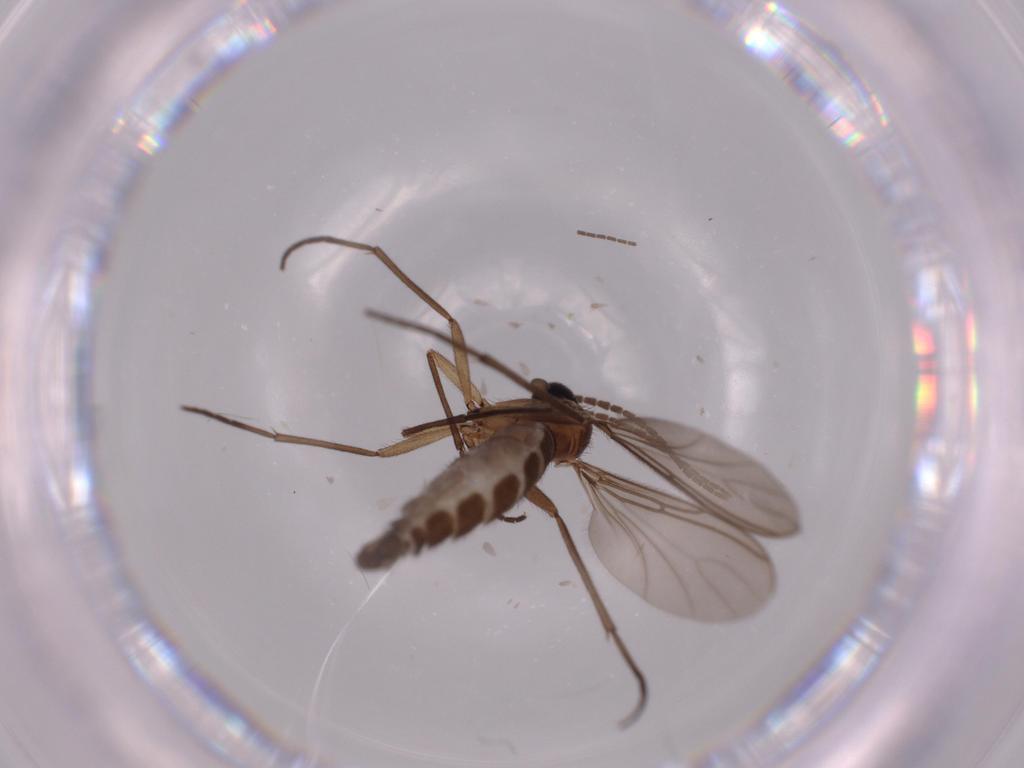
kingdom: Animalia
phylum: Arthropoda
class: Insecta
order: Diptera
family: Sciaridae
